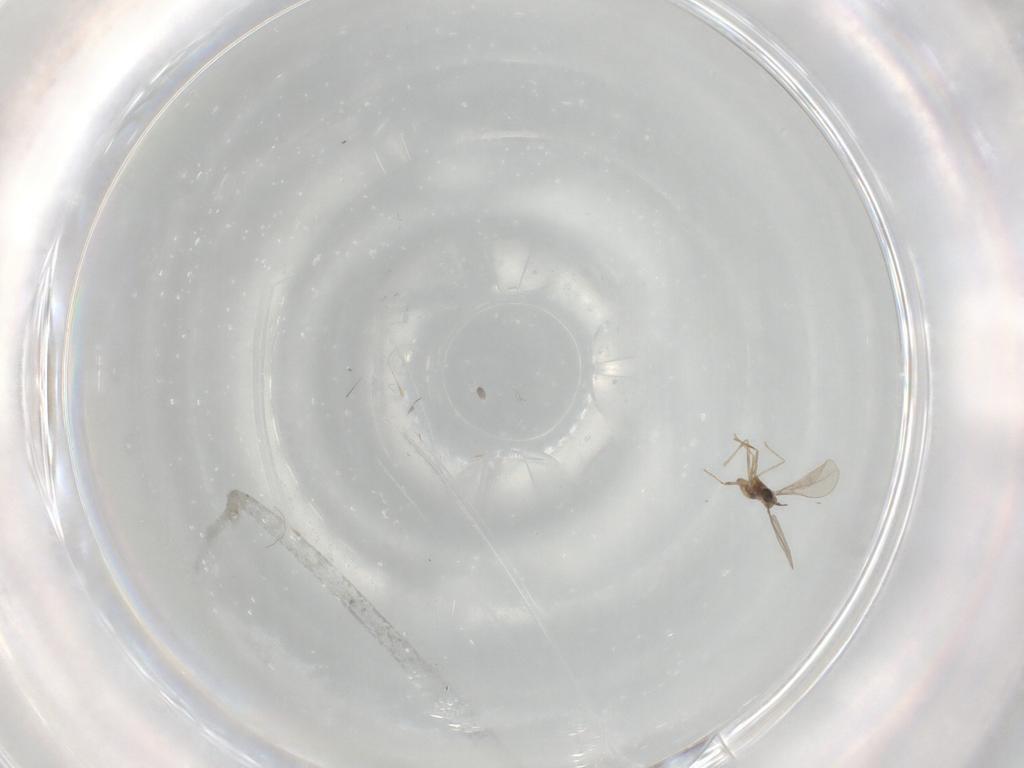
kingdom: Animalia
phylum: Arthropoda
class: Insecta
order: Diptera
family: Cecidomyiidae
